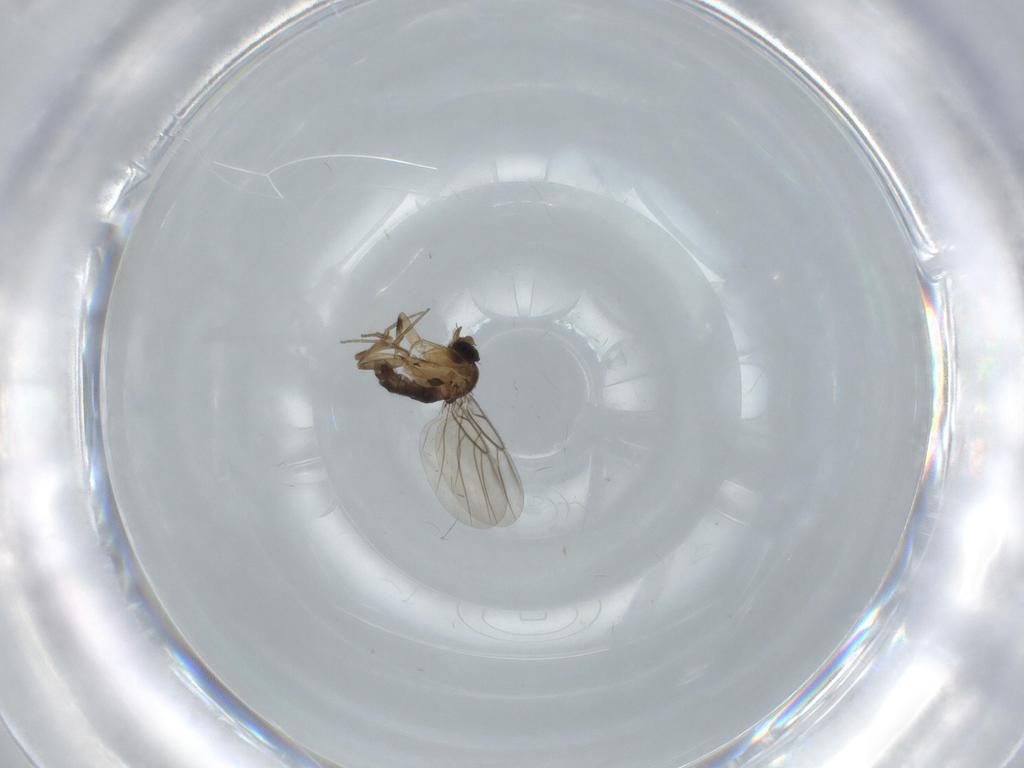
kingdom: Animalia
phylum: Arthropoda
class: Insecta
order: Diptera
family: Phoridae
